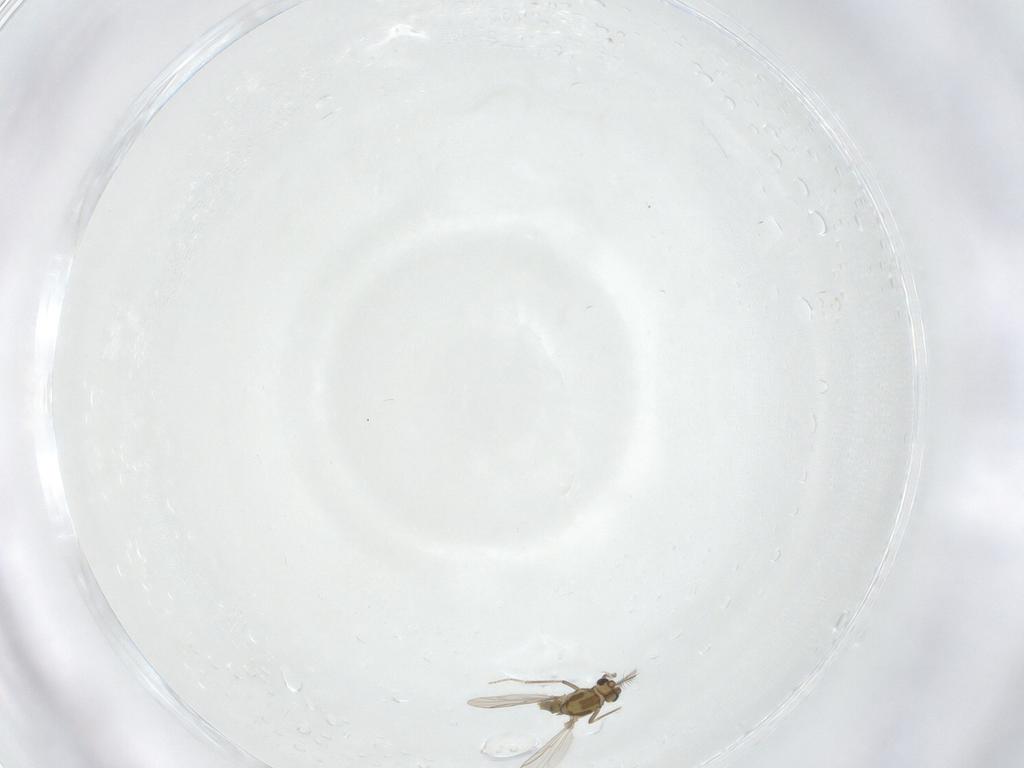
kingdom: Animalia
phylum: Arthropoda
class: Insecta
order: Diptera
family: Chironomidae
